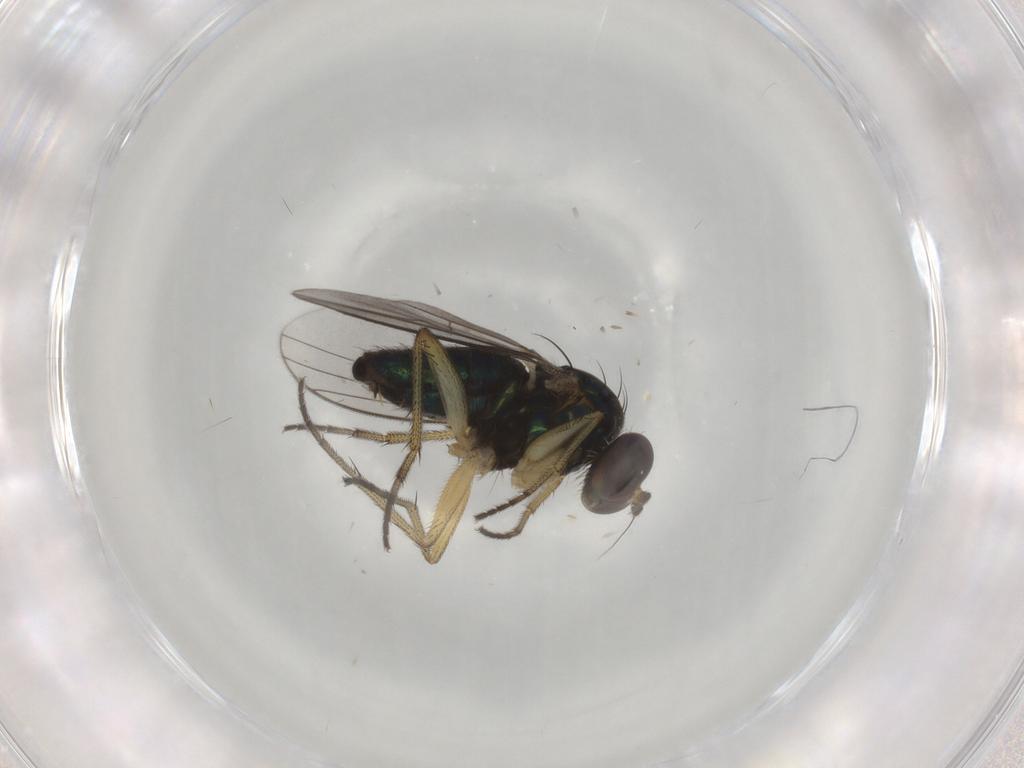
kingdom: Animalia
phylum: Arthropoda
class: Insecta
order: Diptera
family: Dolichopodidae
